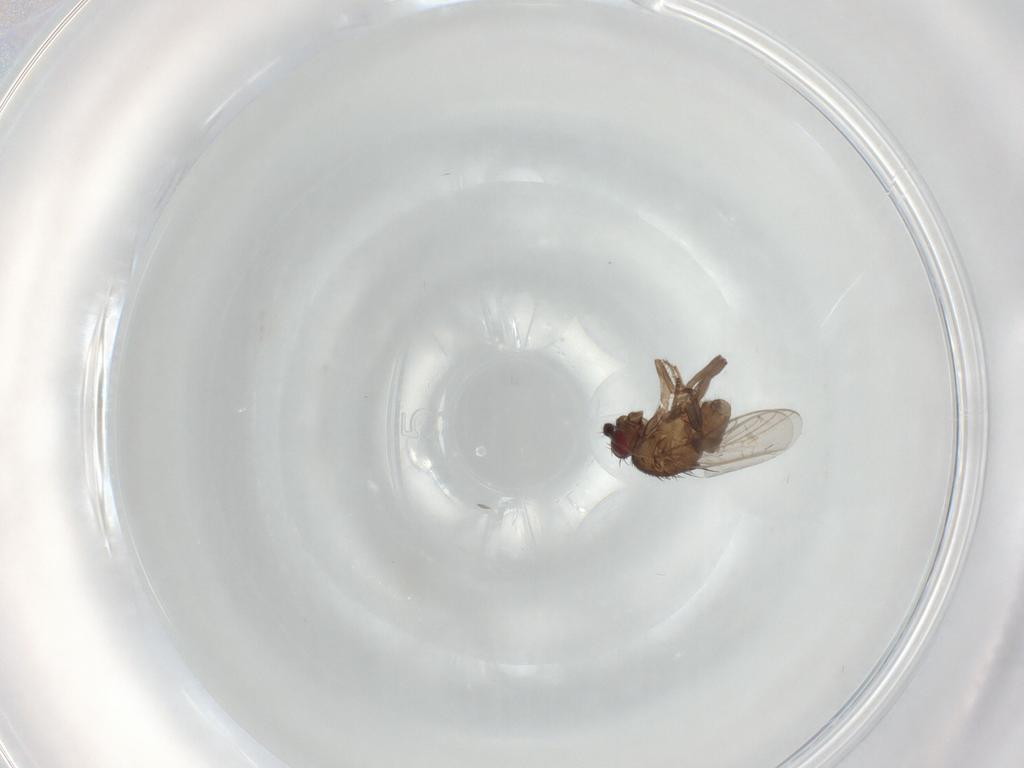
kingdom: Animalia
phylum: Arthropoda
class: Insecta
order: Diptera
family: Sphaeroceridae
